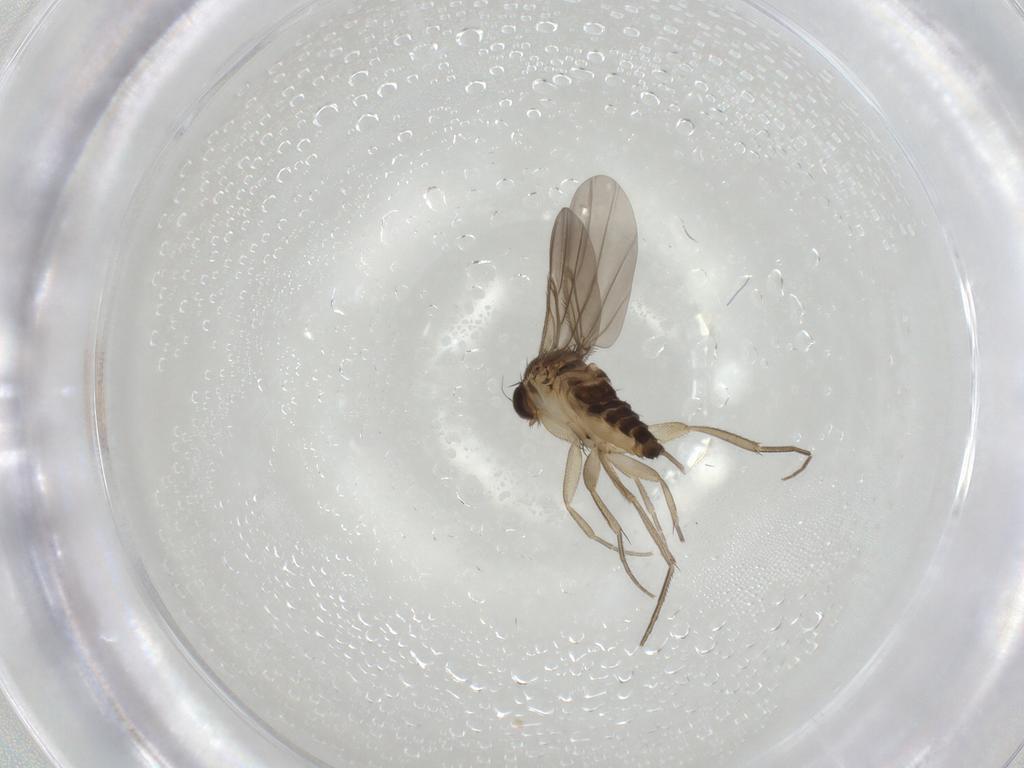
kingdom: Animalia
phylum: Arthropoda
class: Insecta
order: Diptera
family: Phoridae
